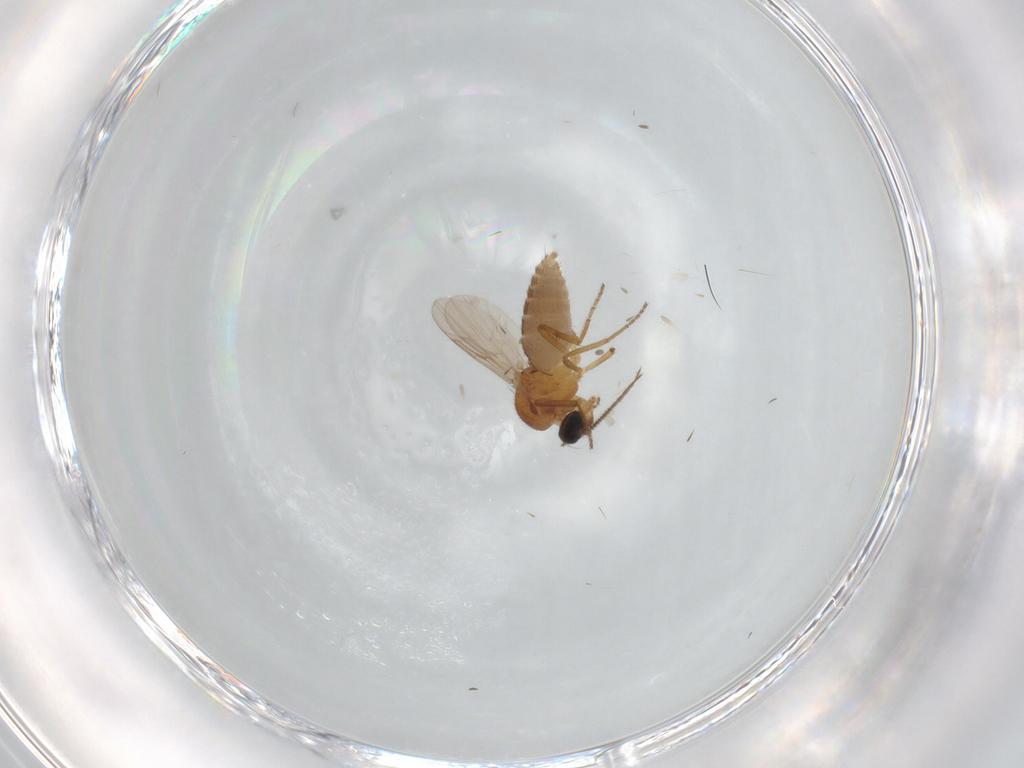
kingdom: Animalia
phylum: Arthropoda
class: Insecta
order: Diptera
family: Ceratopogonidae
